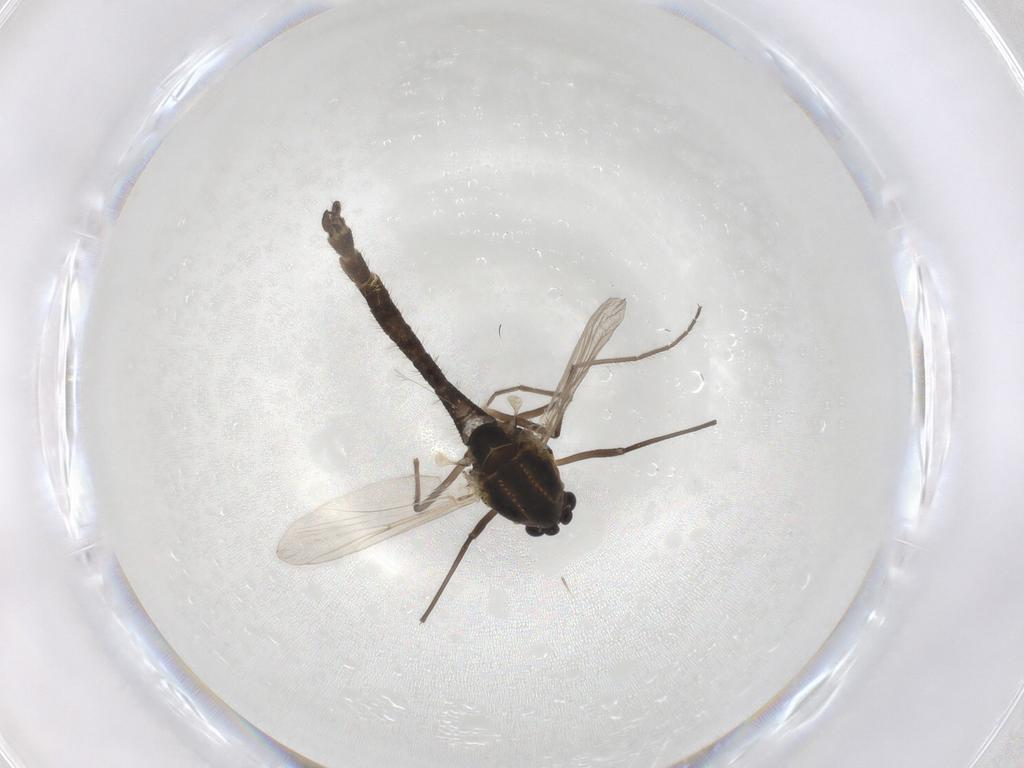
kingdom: Animalia
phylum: Arthropoda
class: Insecta
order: Diptera
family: Chironomidae
